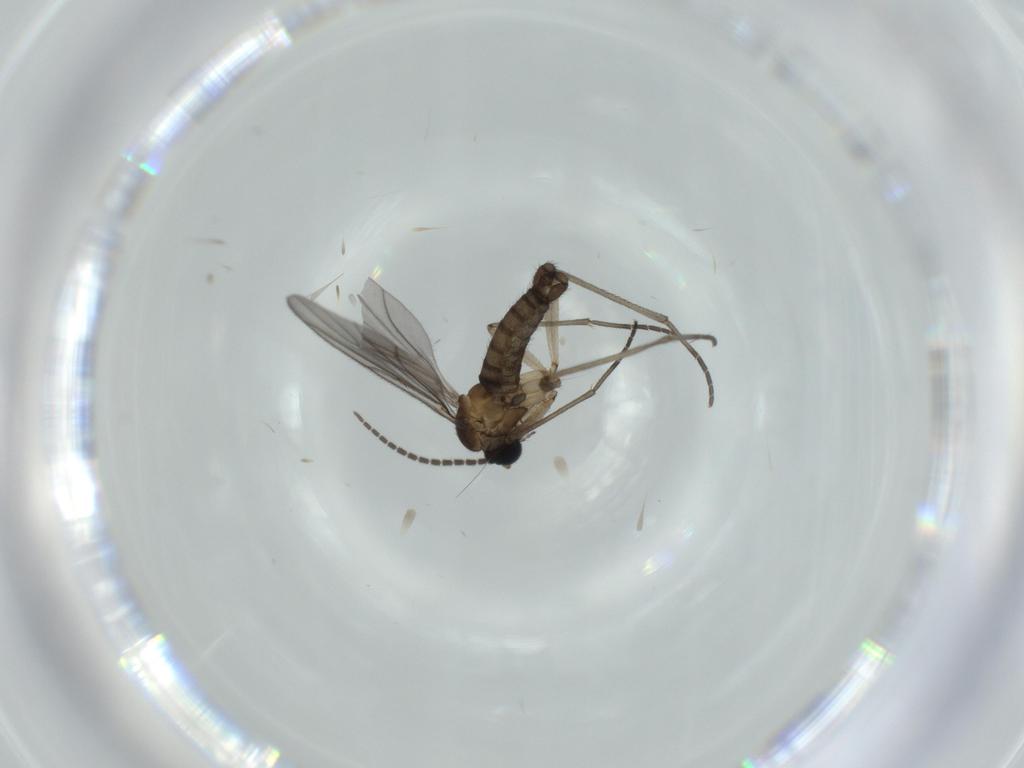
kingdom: Animalia
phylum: Arthropoda
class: Insecta
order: Diptera
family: Sciaridae
